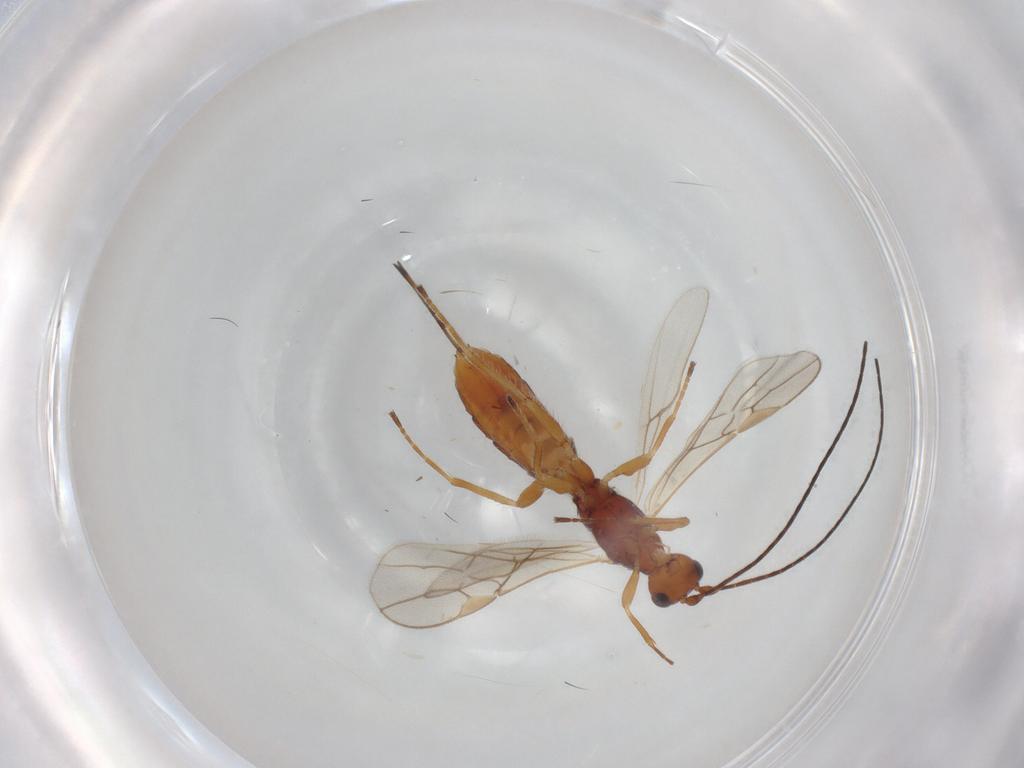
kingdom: Animalia
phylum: Arthropoda
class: Insecta
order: Hymenoptera
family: Braconidae
